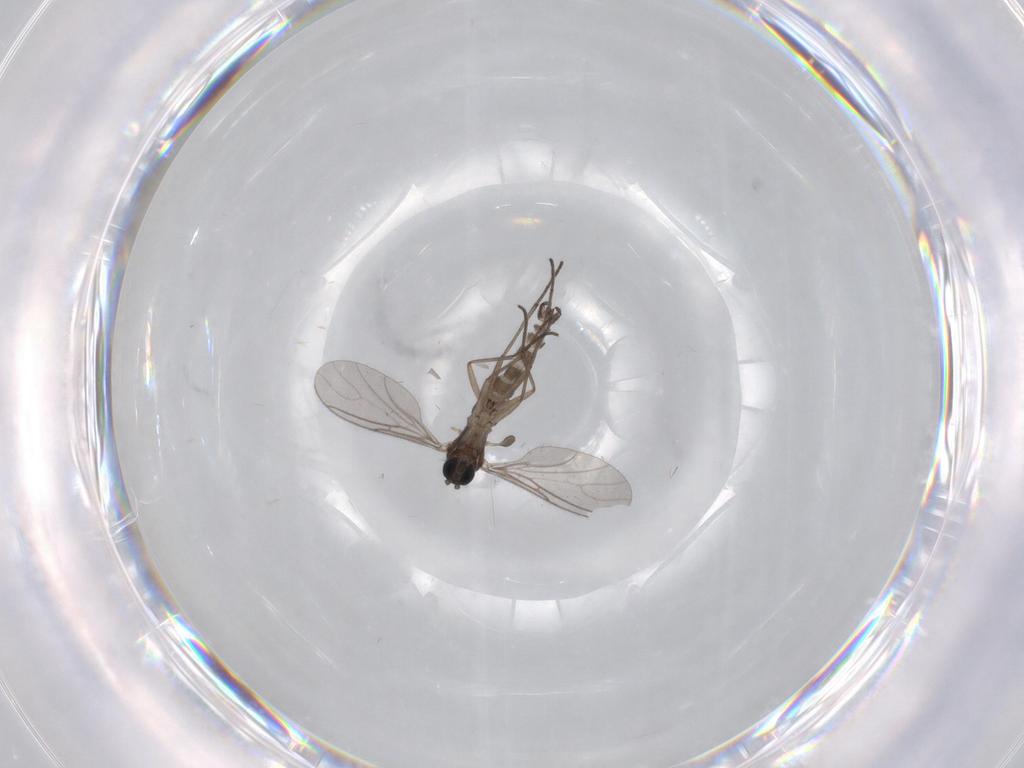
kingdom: Animalia
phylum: Arthropoda
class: Insecta
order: Diptera
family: Sciaridae
